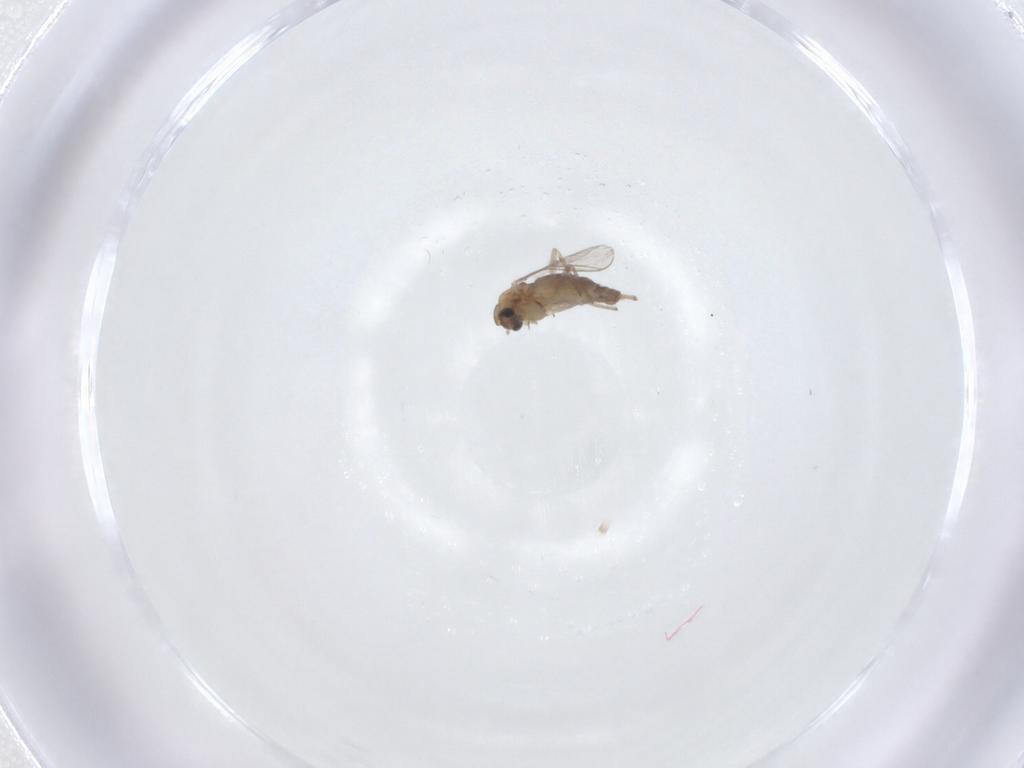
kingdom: Animalia
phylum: Arthropoda
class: Insecta
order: Diptera
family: Chironomidae
